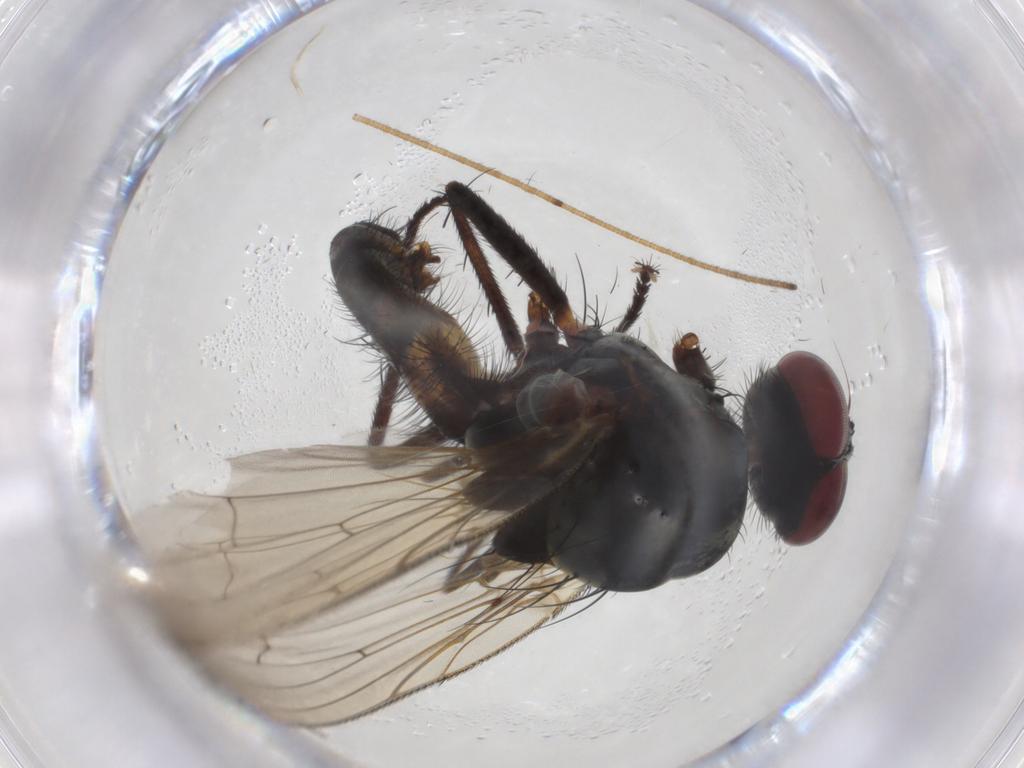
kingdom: Animalia
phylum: Arthropoda
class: Insecta
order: Diptera
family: Anthomyiidae
